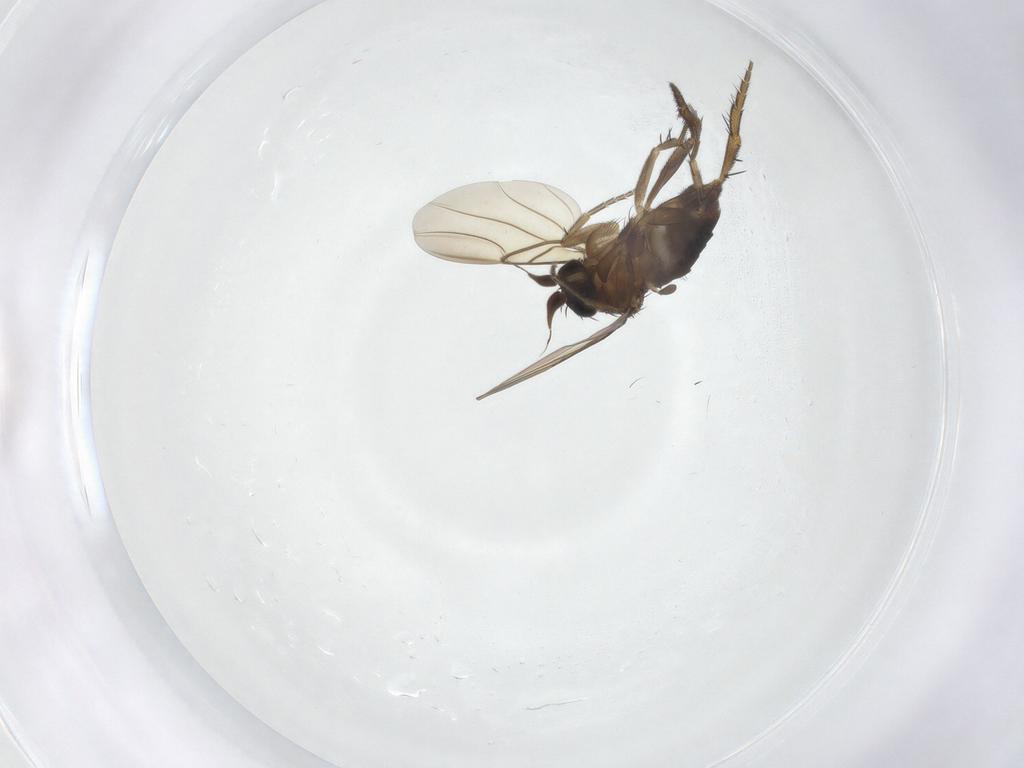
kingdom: Animalia
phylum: Arthropoda
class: Insecta
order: Diptera
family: Phoridae
